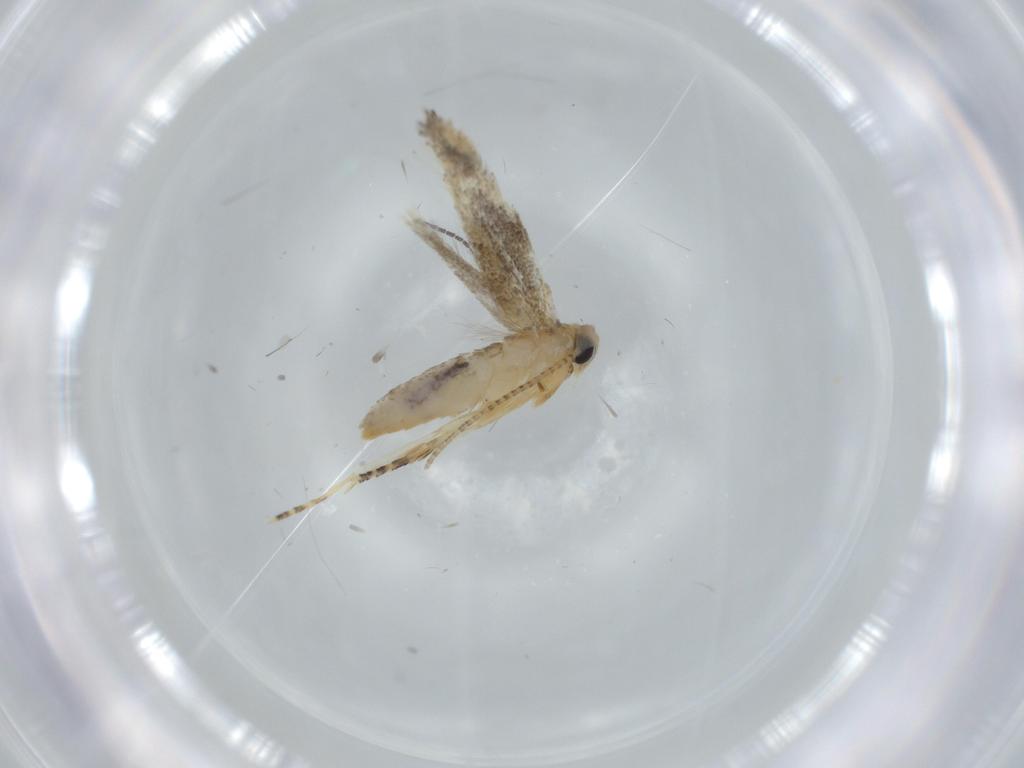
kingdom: Animalia
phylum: Arthropoda
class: Insecta
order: Lepidoptera
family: Bucculatricidae
